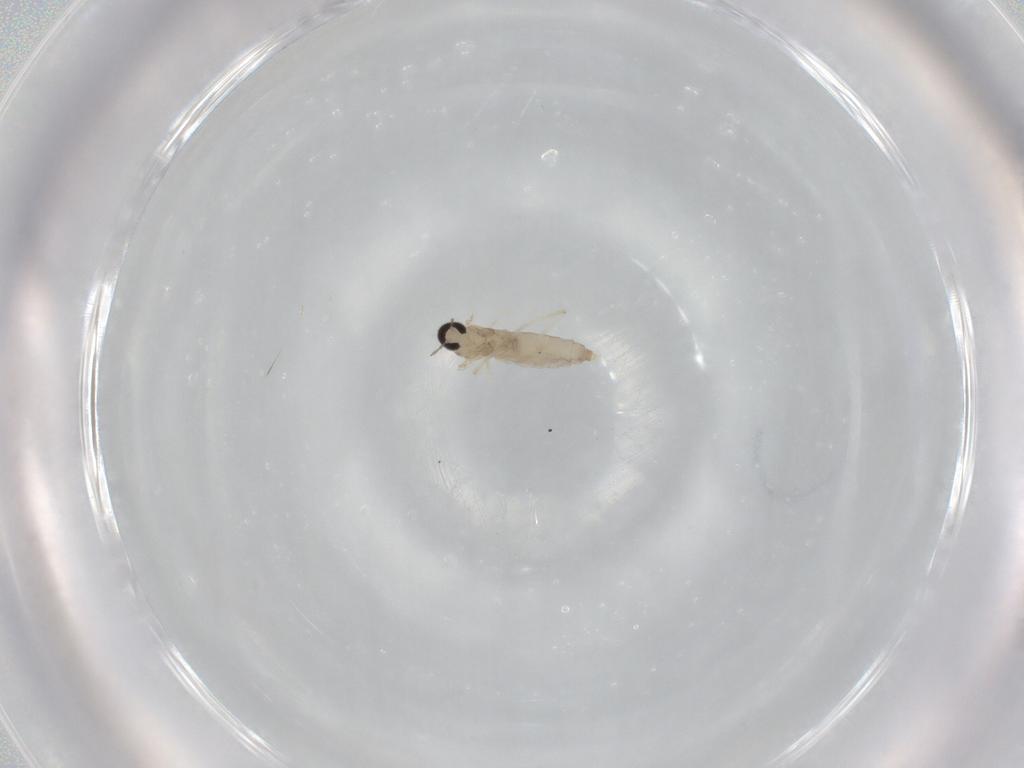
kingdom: Animalia
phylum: Arthropoda
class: Insecta
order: Diptera
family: Cecidomyiidae
